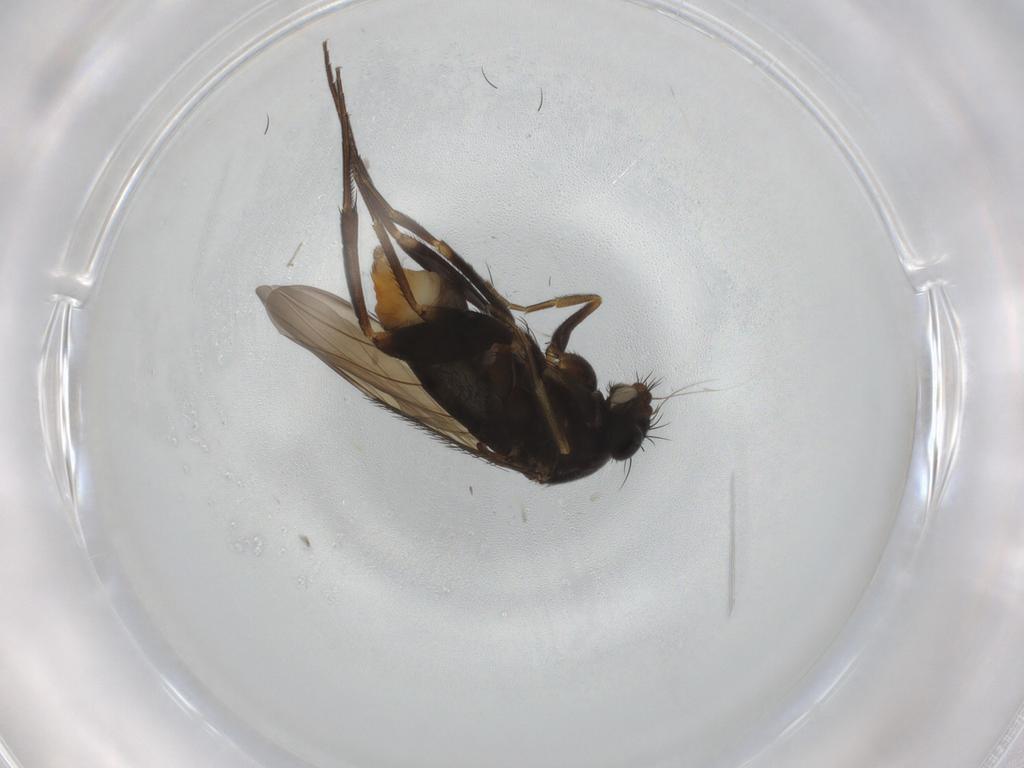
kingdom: Animalia
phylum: Arthropoda
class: Insecta
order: Diptera
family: Phoridae
